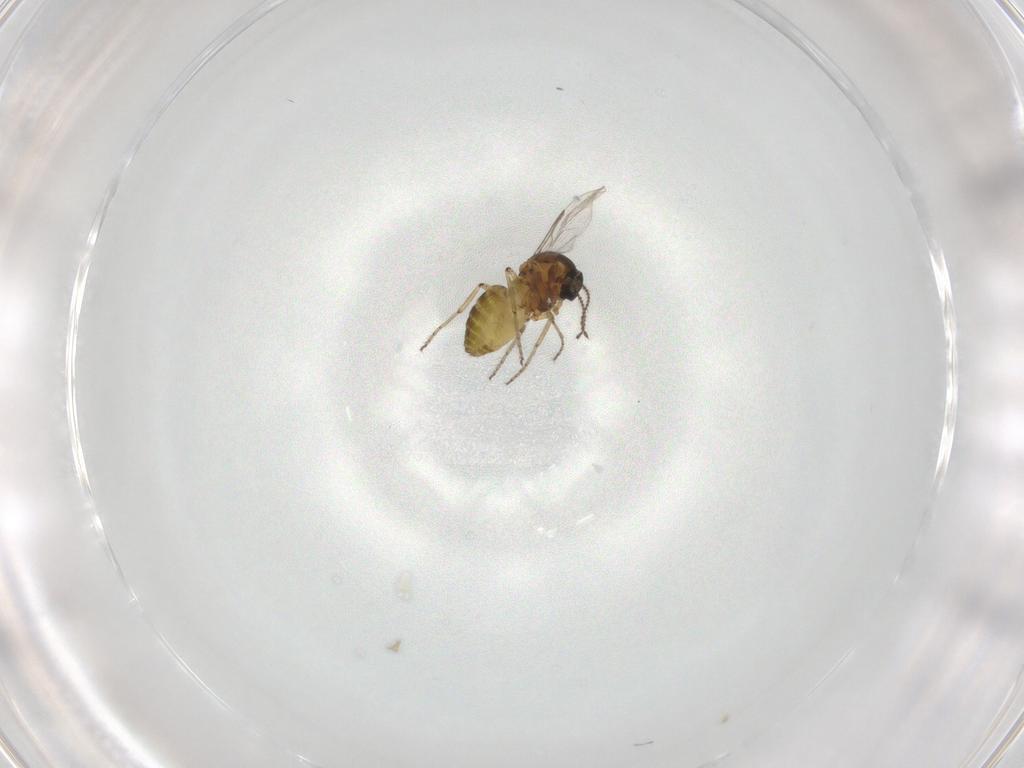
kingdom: Animalia
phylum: Arthropoda
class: Insecta
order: Diptera
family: Ceratopogonidae
